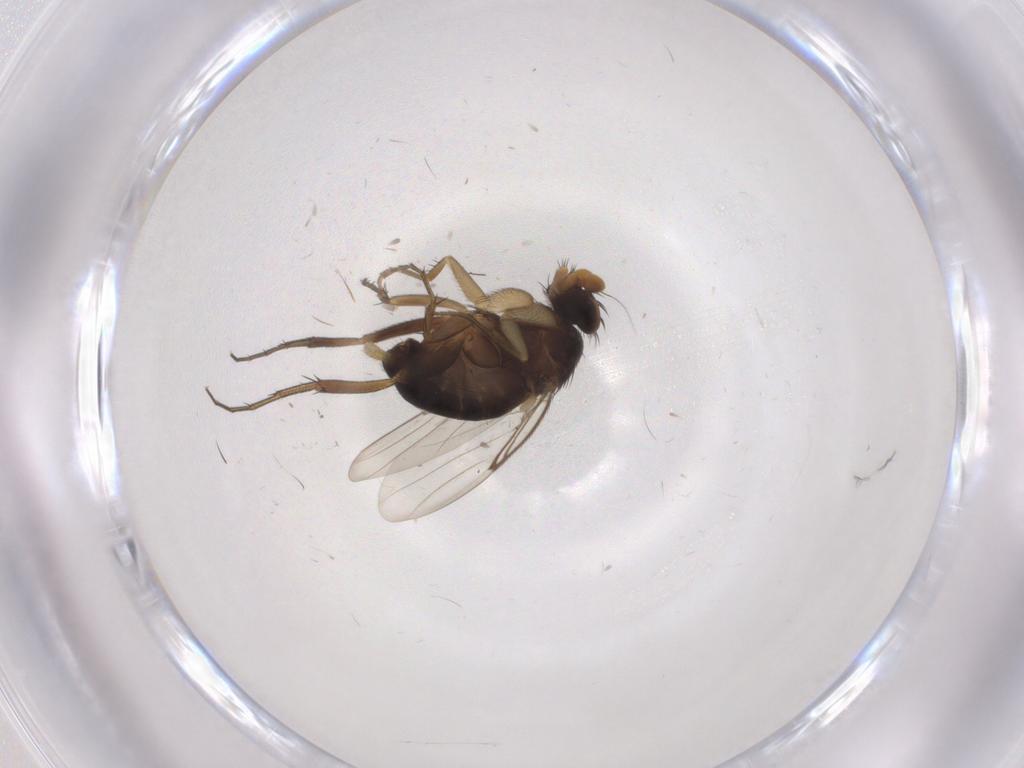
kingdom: Animalia
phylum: Arthropoda
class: Insecta
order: Diptera
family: Phoridae
